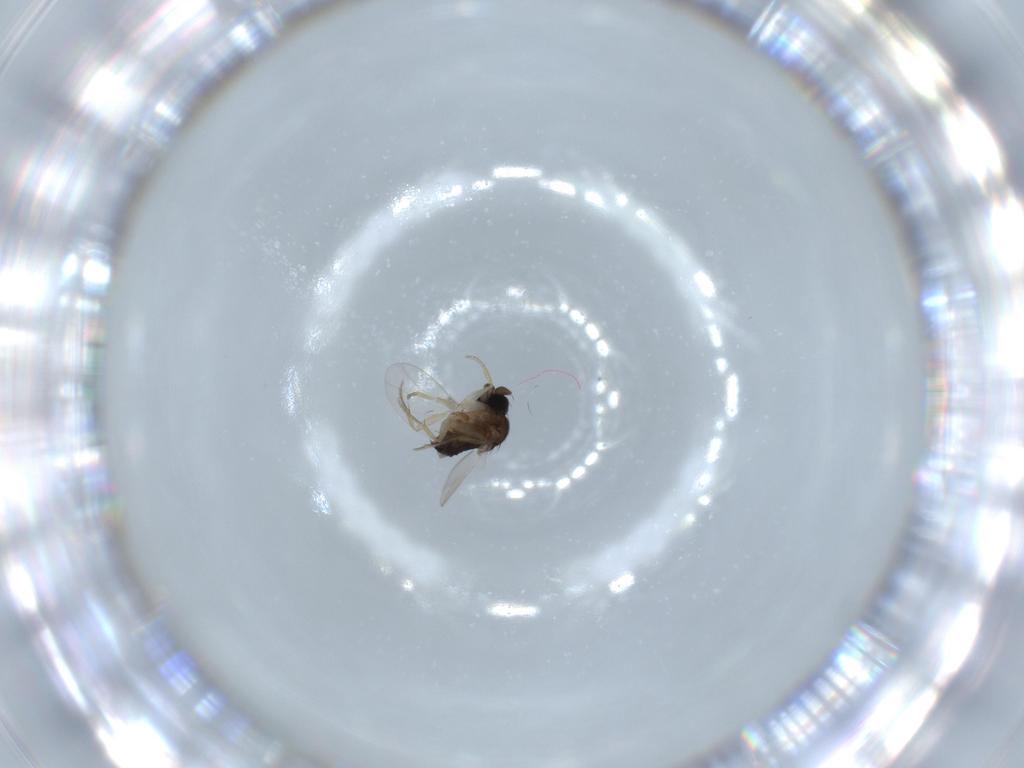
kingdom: Animalia
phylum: Arthropoda
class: Insecta
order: Diptera
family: Phoridae
